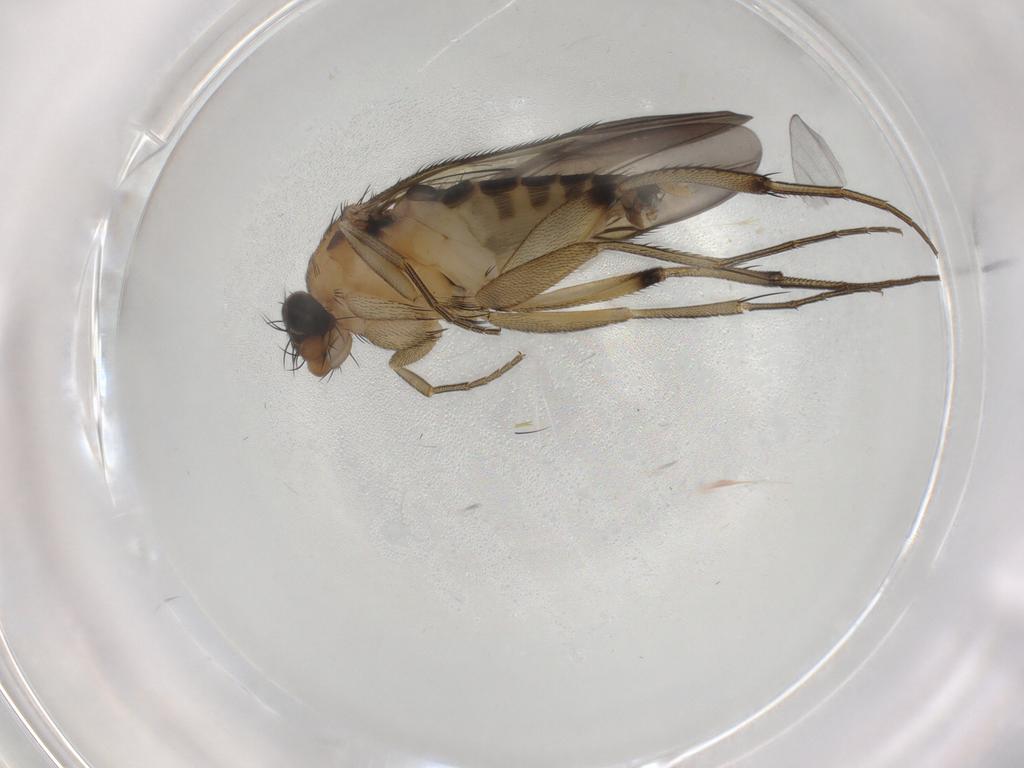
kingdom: Animalia
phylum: Arthropoda
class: Insecta
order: Diptera
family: Phoridae
